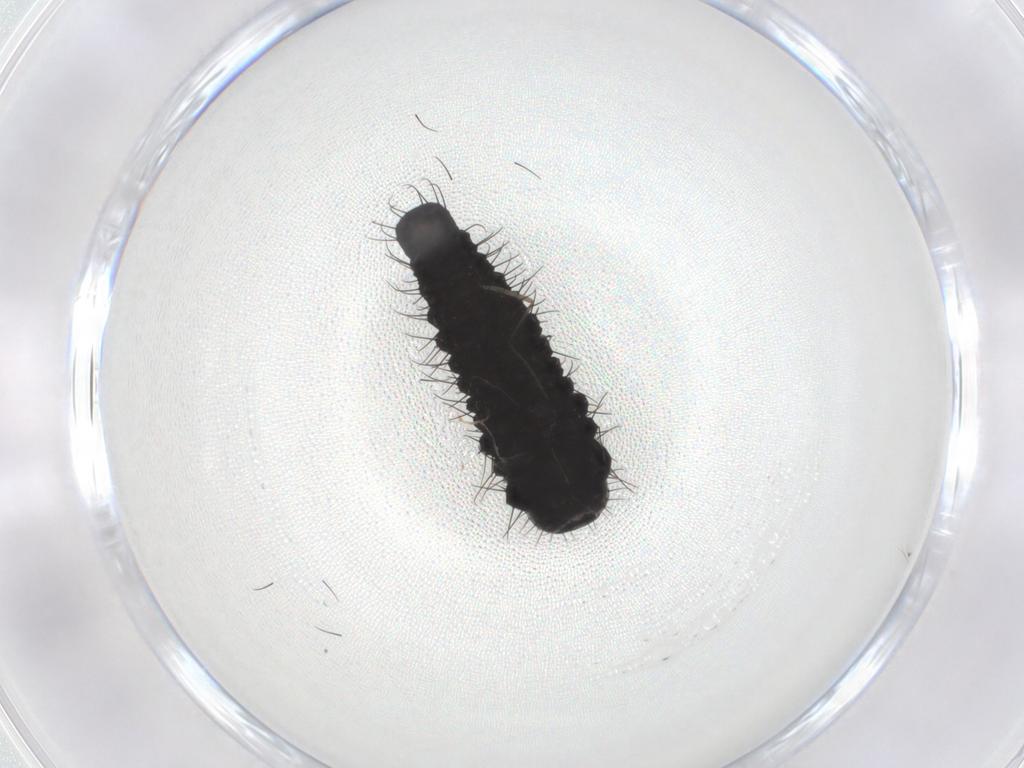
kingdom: Animalia
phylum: Arthropoda
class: Insecta
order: Coleoptera
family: Chrysomelidae
